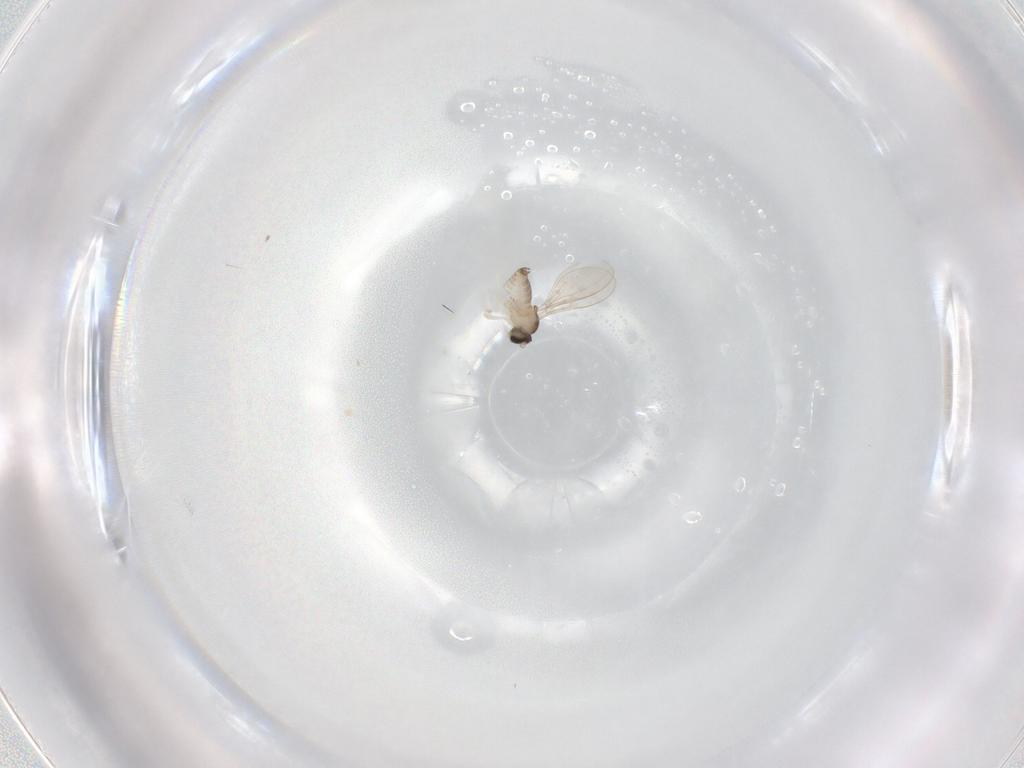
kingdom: Animalia
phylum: Arthropoda
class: Insecta
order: Diptera
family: Cecidomyiidae
